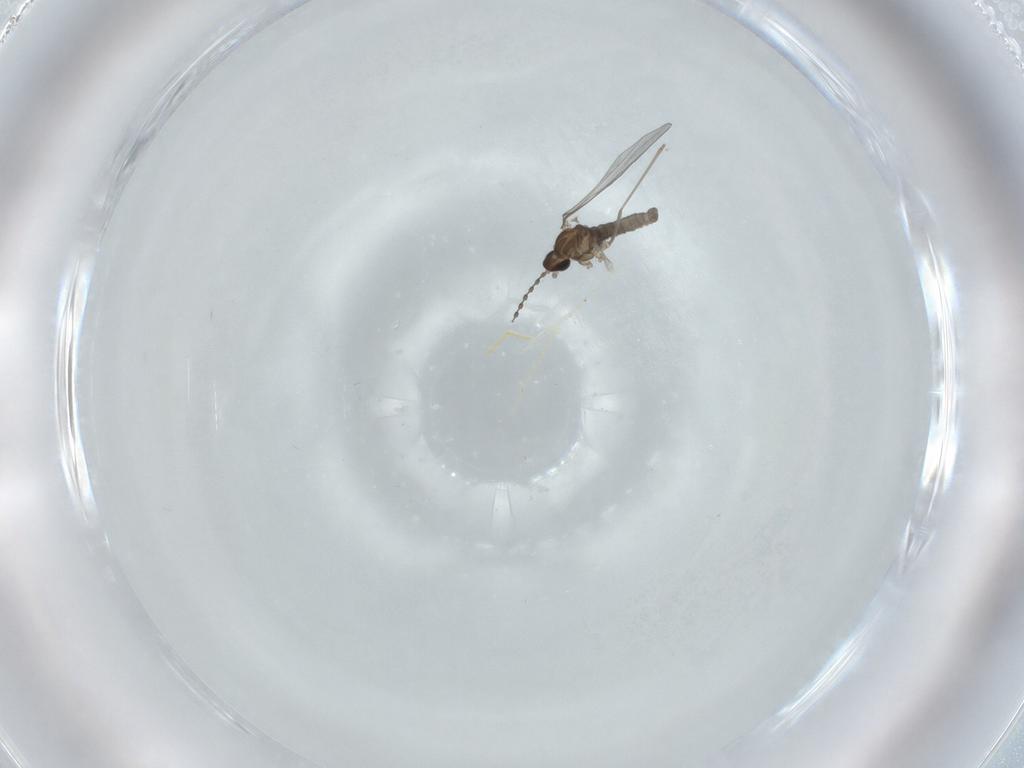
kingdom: Animalia
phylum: Arthropoda
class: Insecta
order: Diptera
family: Cecidomyiidae
